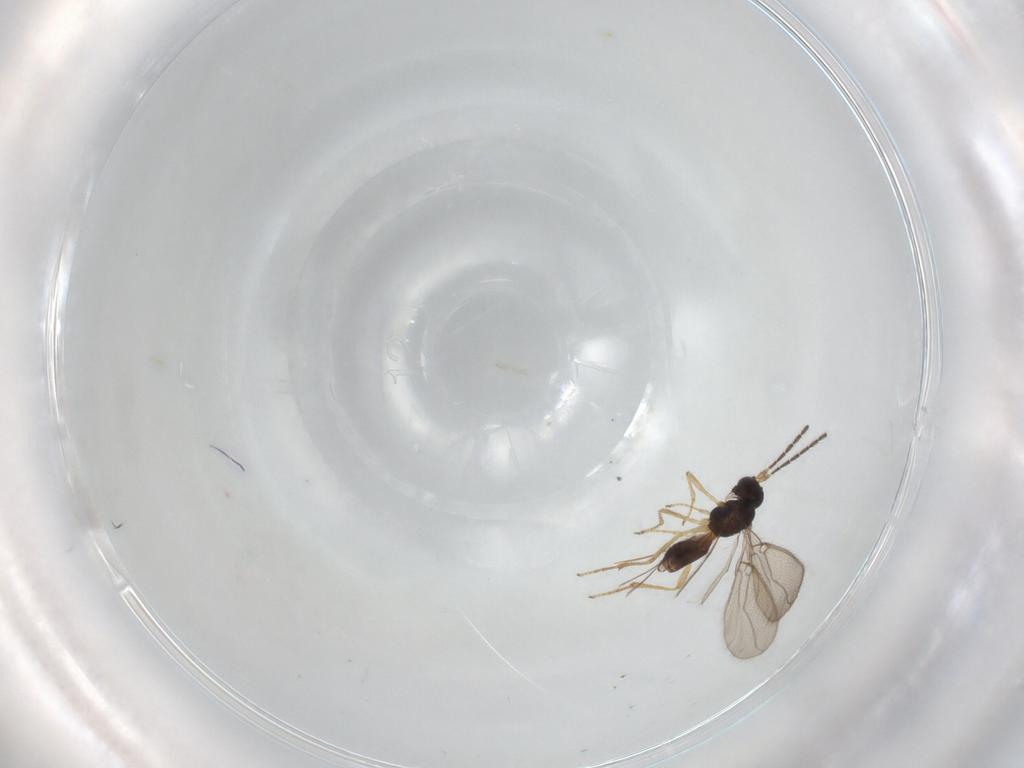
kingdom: Animalia
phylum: Arthropoda
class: Insecta
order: Hymenoptera
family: Braconidae
